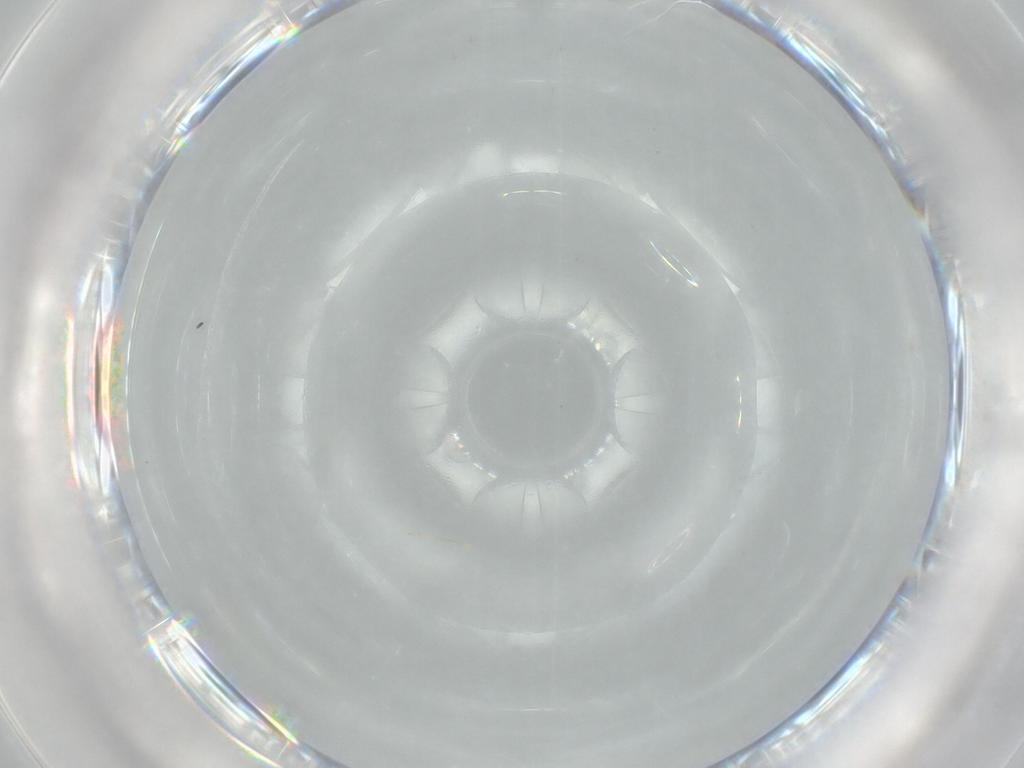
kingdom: Animalia
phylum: Arthropoda
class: Insecta
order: Diptera
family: Chloropidae
